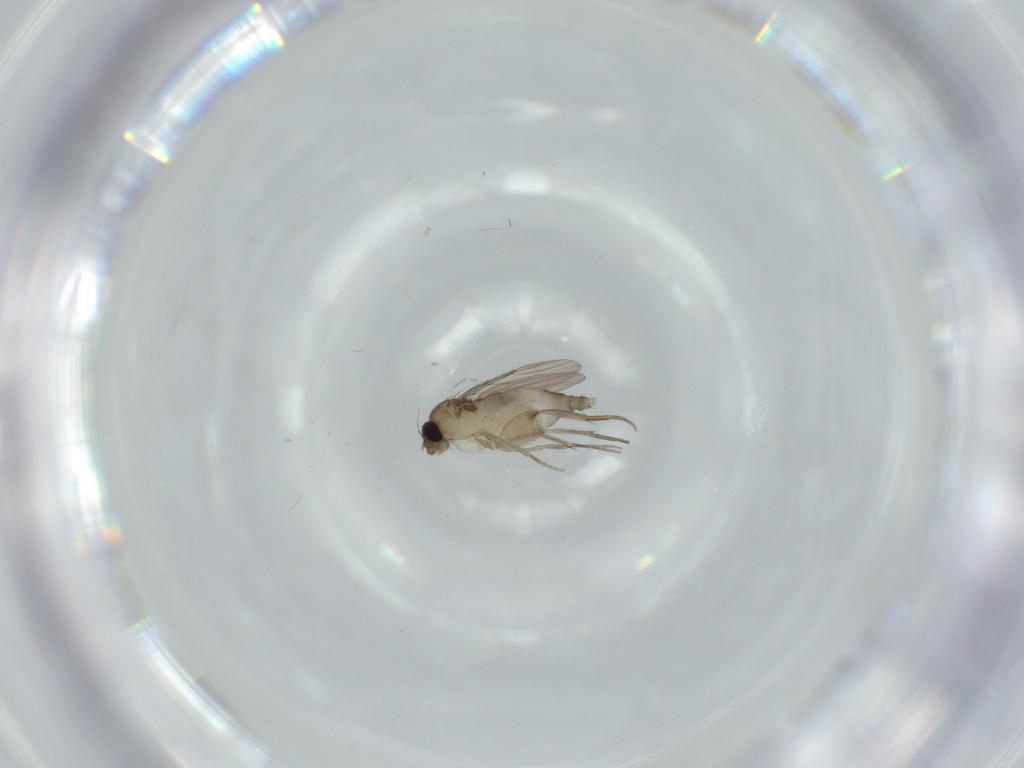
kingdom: Animalia
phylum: Arthropoda
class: Insecta
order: Diptera
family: Phoridae
